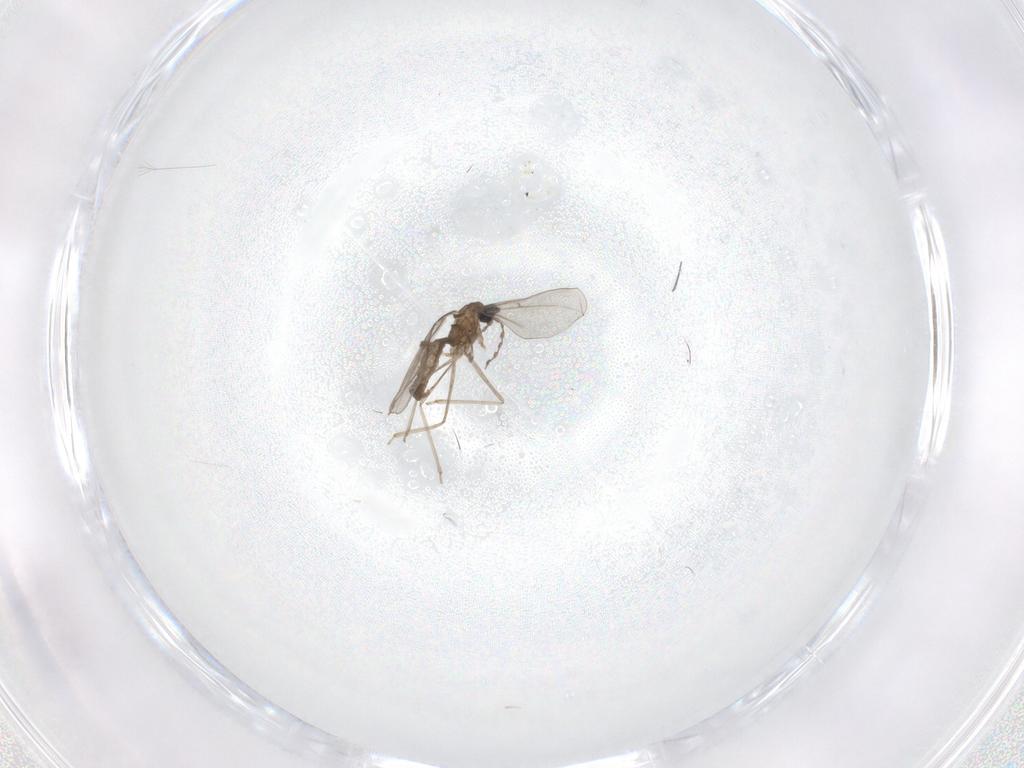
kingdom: Animalia
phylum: Arthropoda
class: Insecta
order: Diptera
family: Cecidomyiidae
